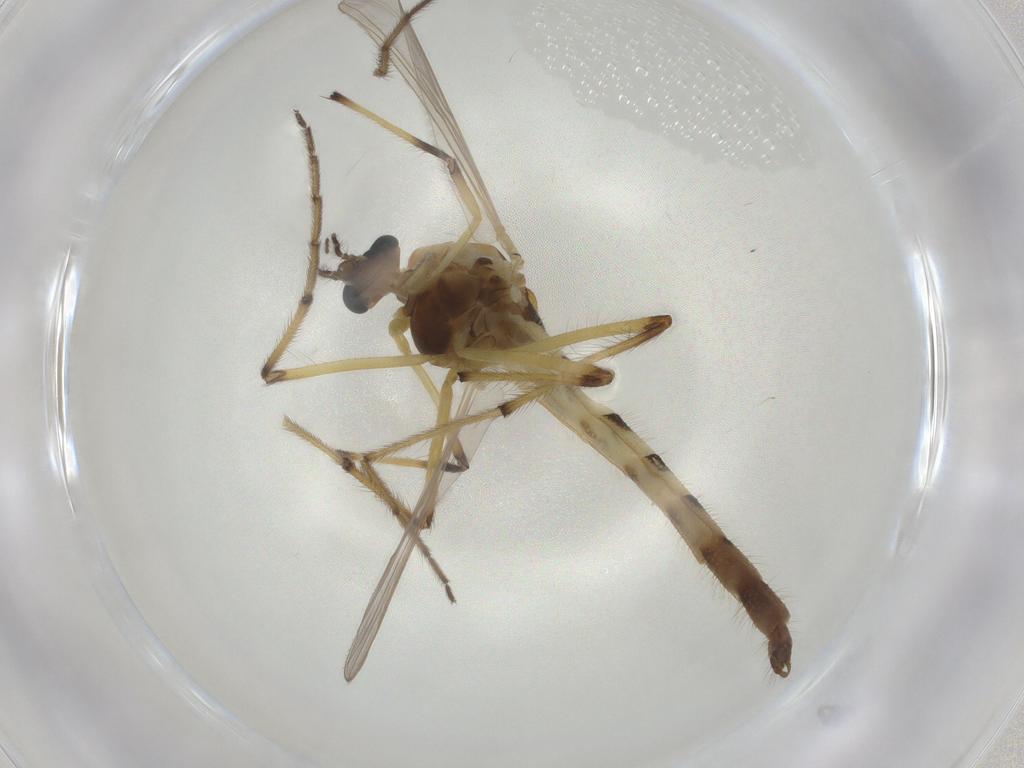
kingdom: Animalia
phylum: Arthropoda
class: Insecta
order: Diptera
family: Chironomidae
